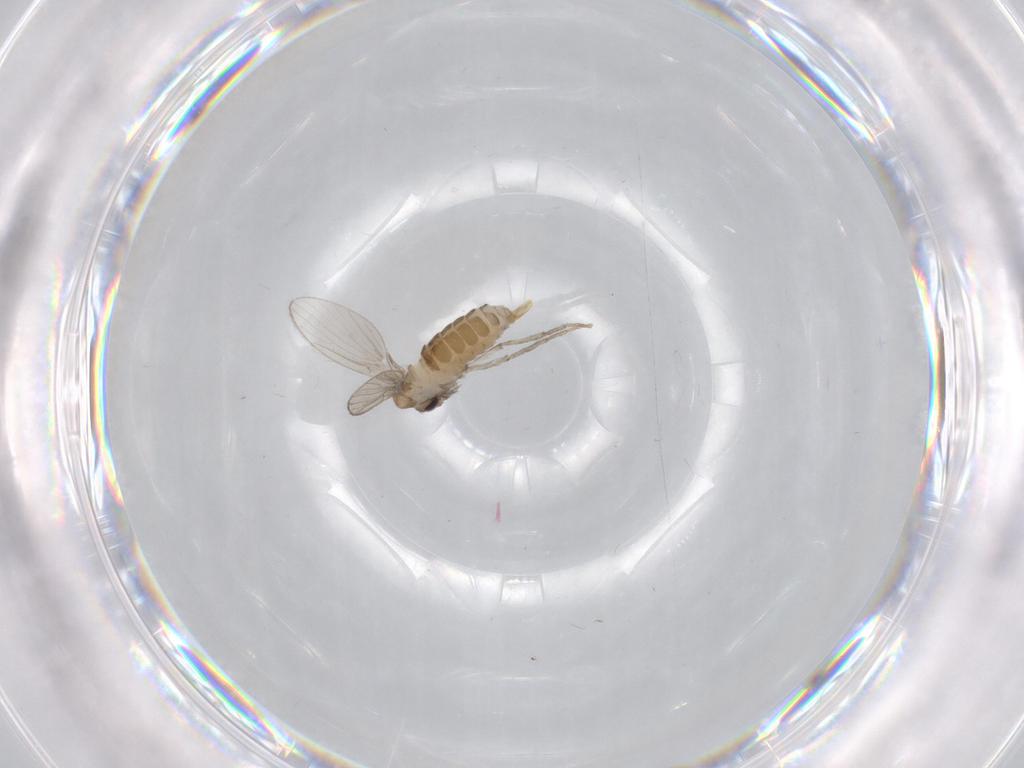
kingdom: Animalia
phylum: Arthropoda
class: Insecta
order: Diptera
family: Psychodidae
